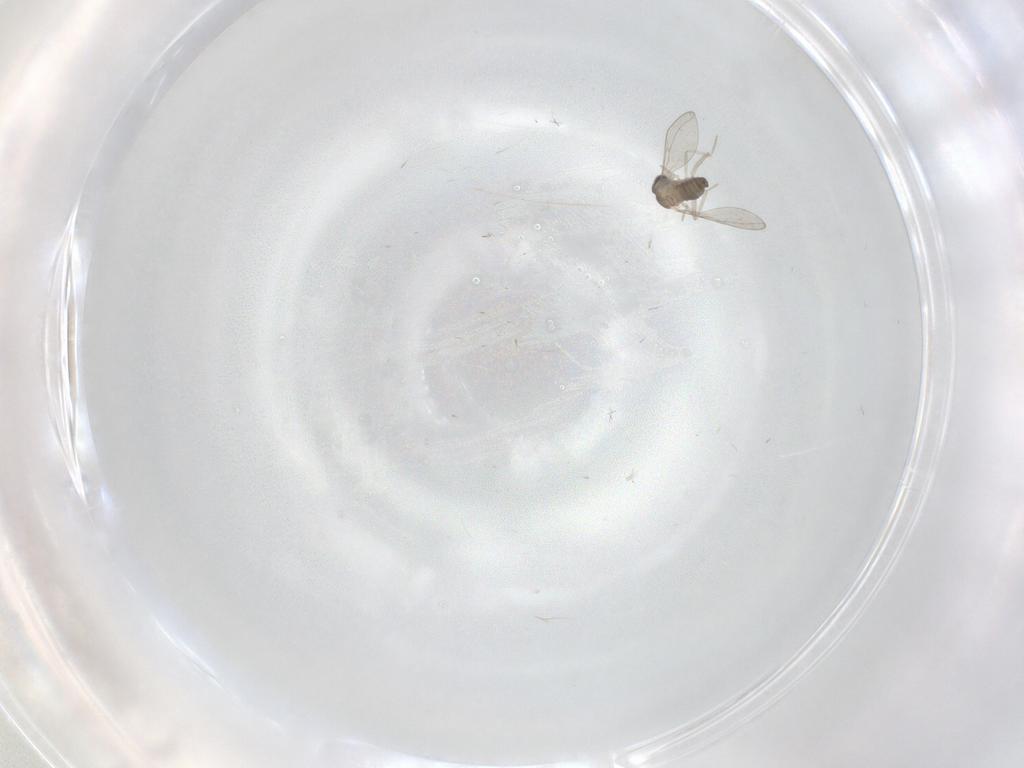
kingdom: Animalia
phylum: Arthropoda
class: Insecta
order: Diptera
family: Cecidomyiidae
